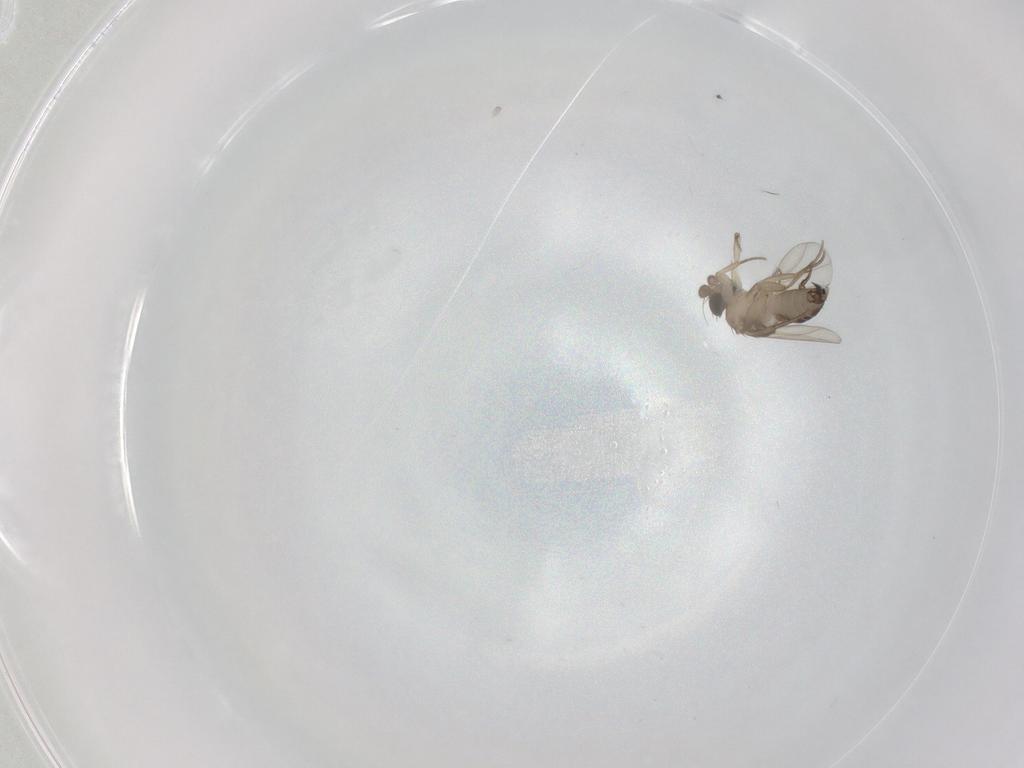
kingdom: Animalia
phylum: Arthropoda
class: Insecta
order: Diptera
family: Phoridae
